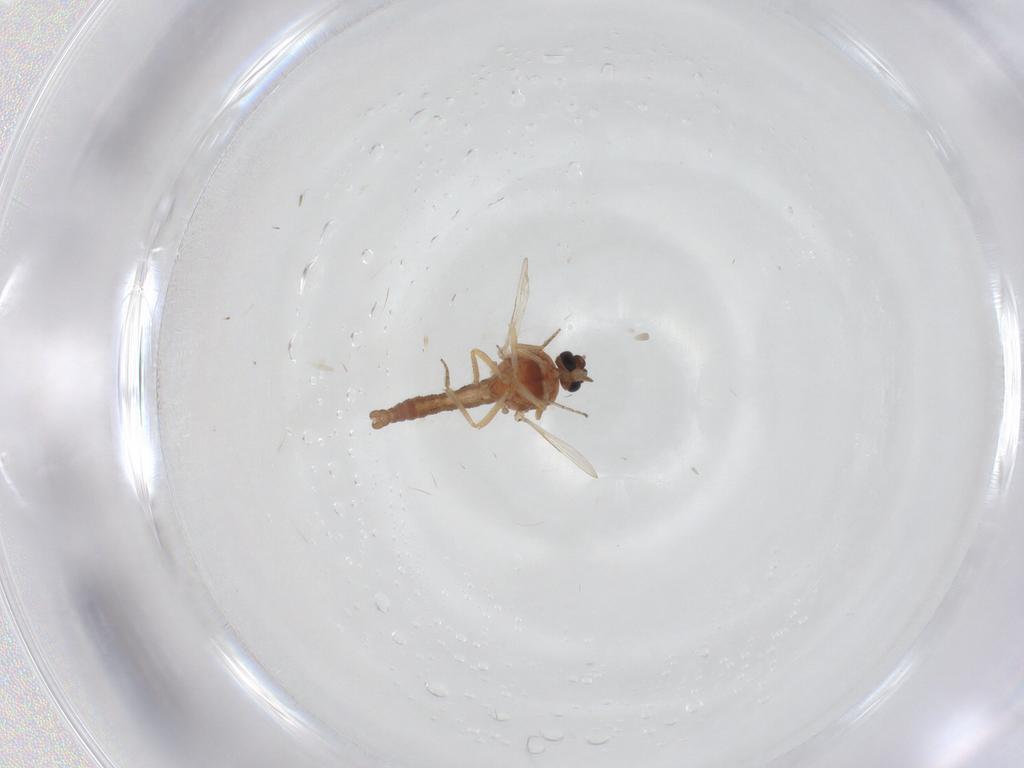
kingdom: Animalia
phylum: Arthropoda
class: Insecta
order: Diptera
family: Ceratopogonidae
